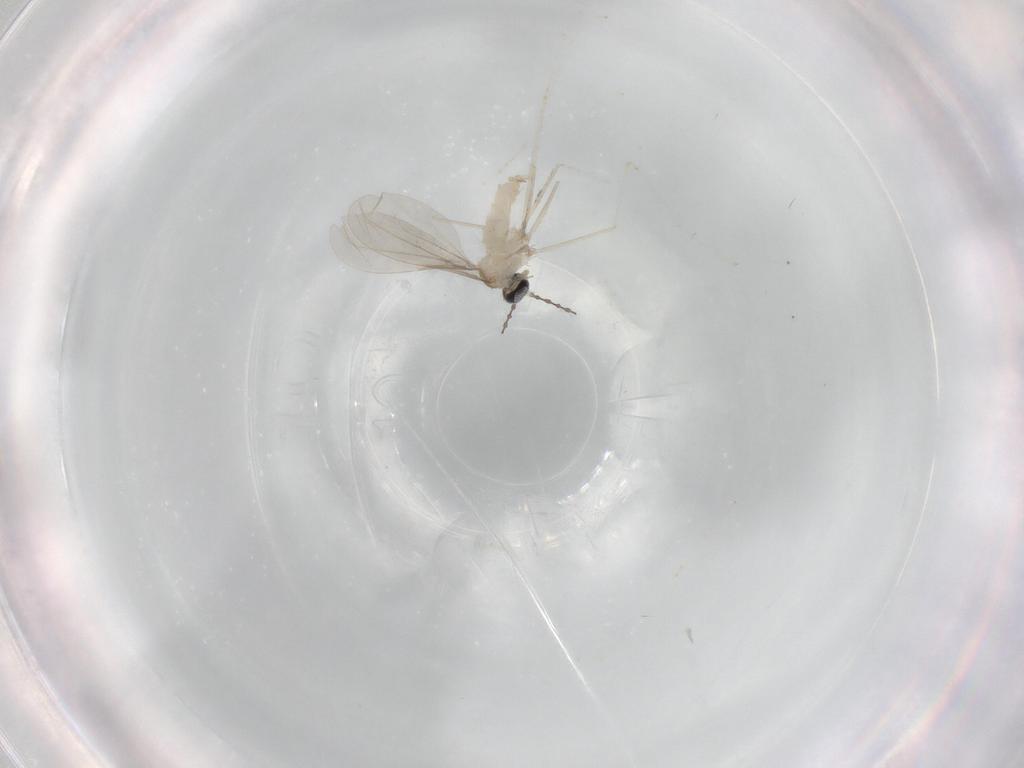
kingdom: Animalia
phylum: Arthropoda
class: Insecta
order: Diptera
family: Cecidomyiidae
